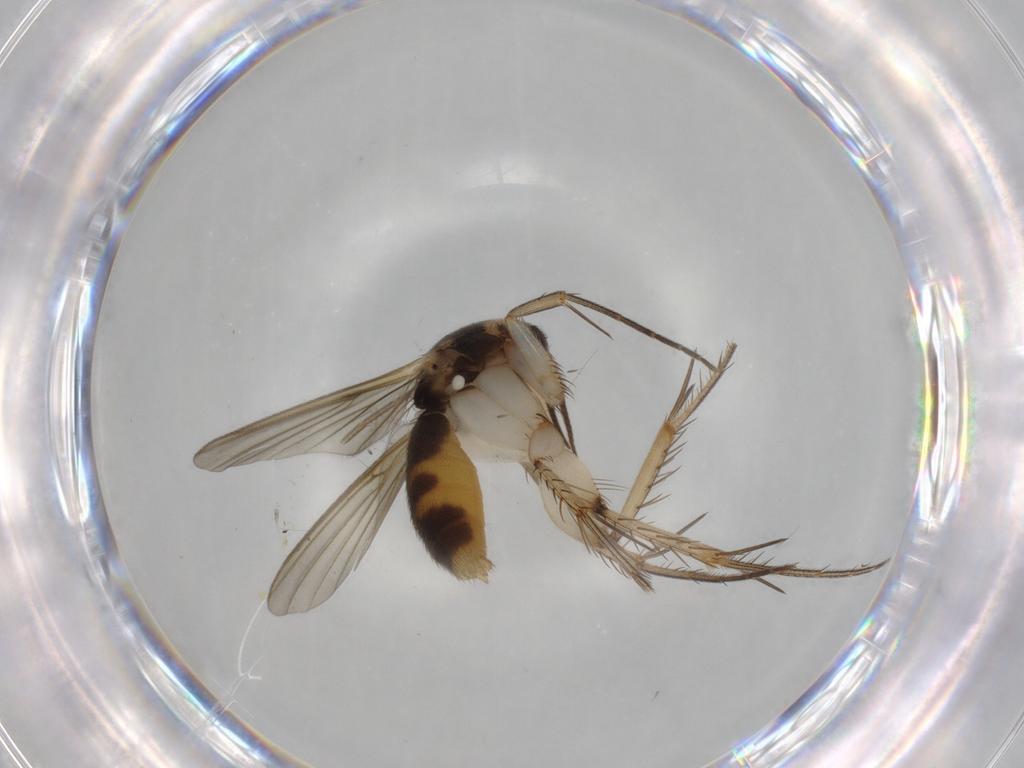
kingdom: Animalia
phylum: Arthropoda
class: Insecta
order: Diptera
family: Mycetophilidae
